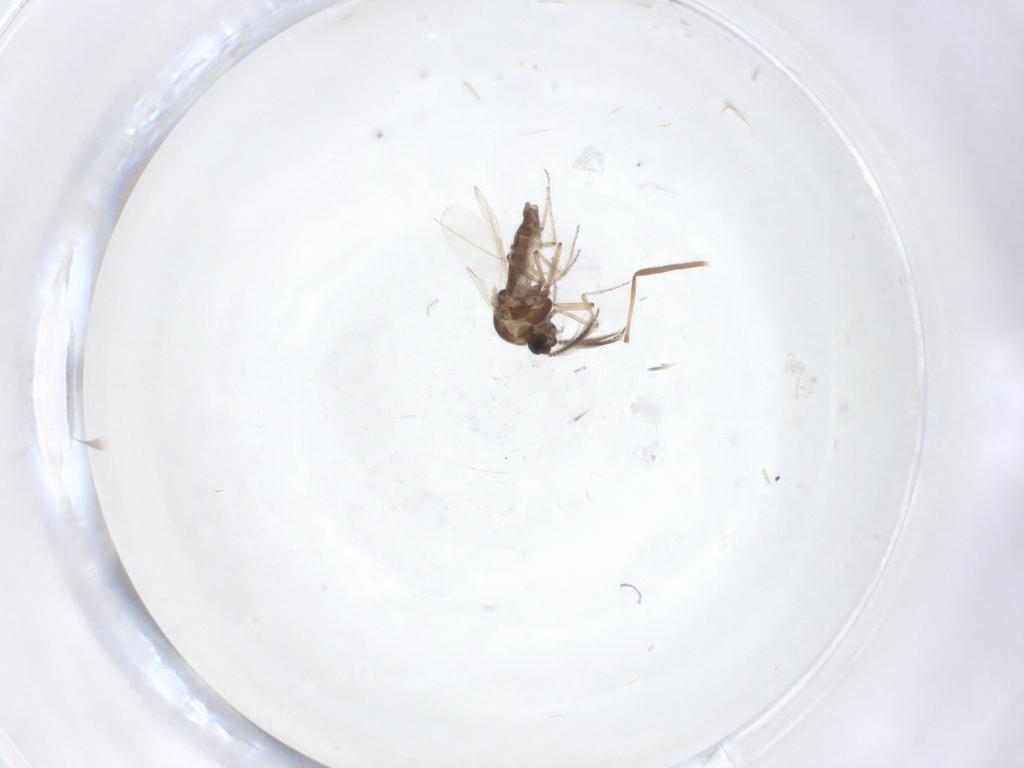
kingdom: Animalia
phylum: Arthropoda
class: Insecta
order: Diptera
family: Ceratopogonidae
